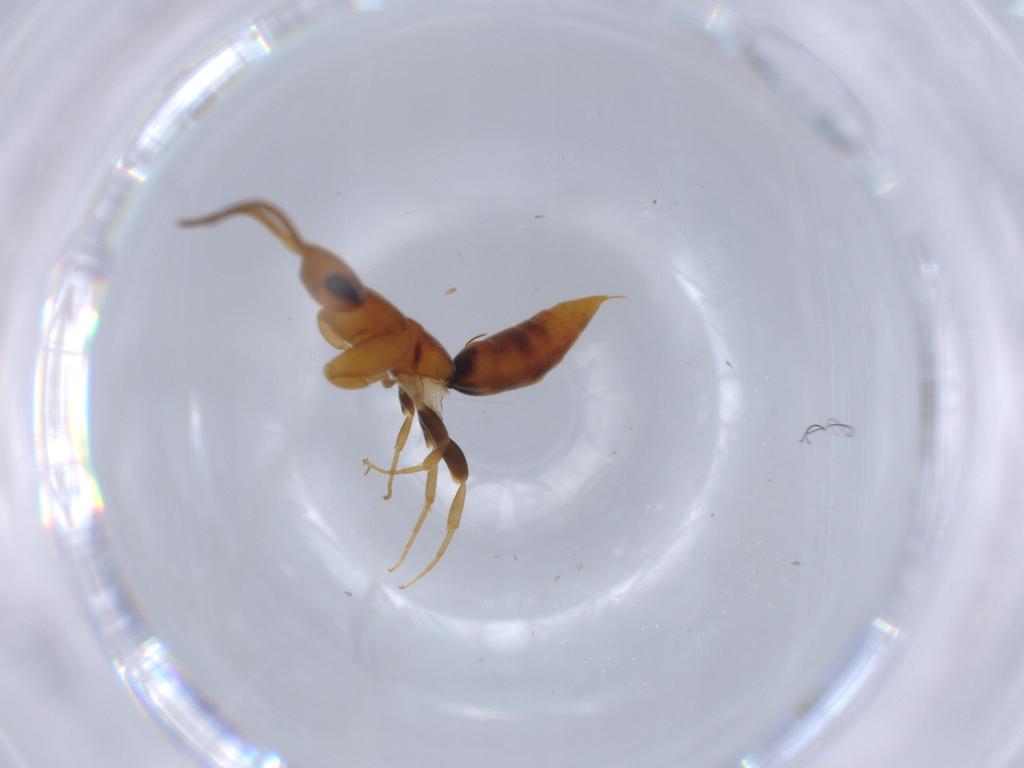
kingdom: Animalia
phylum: Arthropoda
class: Insecta
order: Hymenoptera
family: Sclerogibbidae
